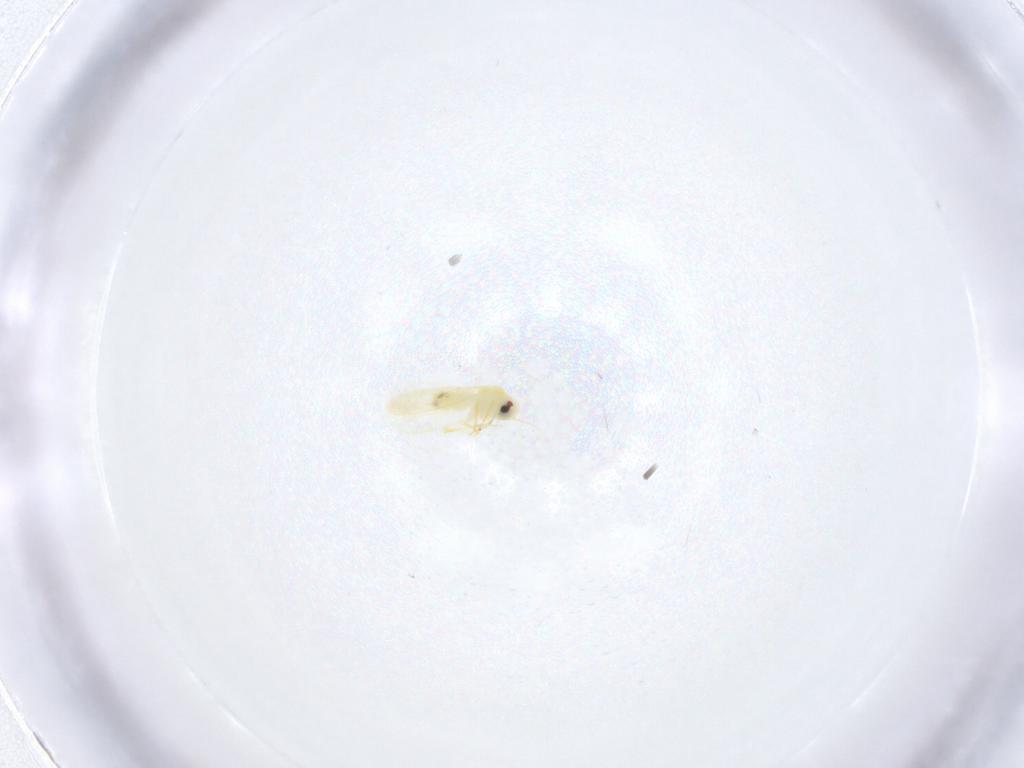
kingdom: Animalia
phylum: Arthropoda
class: Insecta
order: Hemiptera
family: Aleyrodidae
